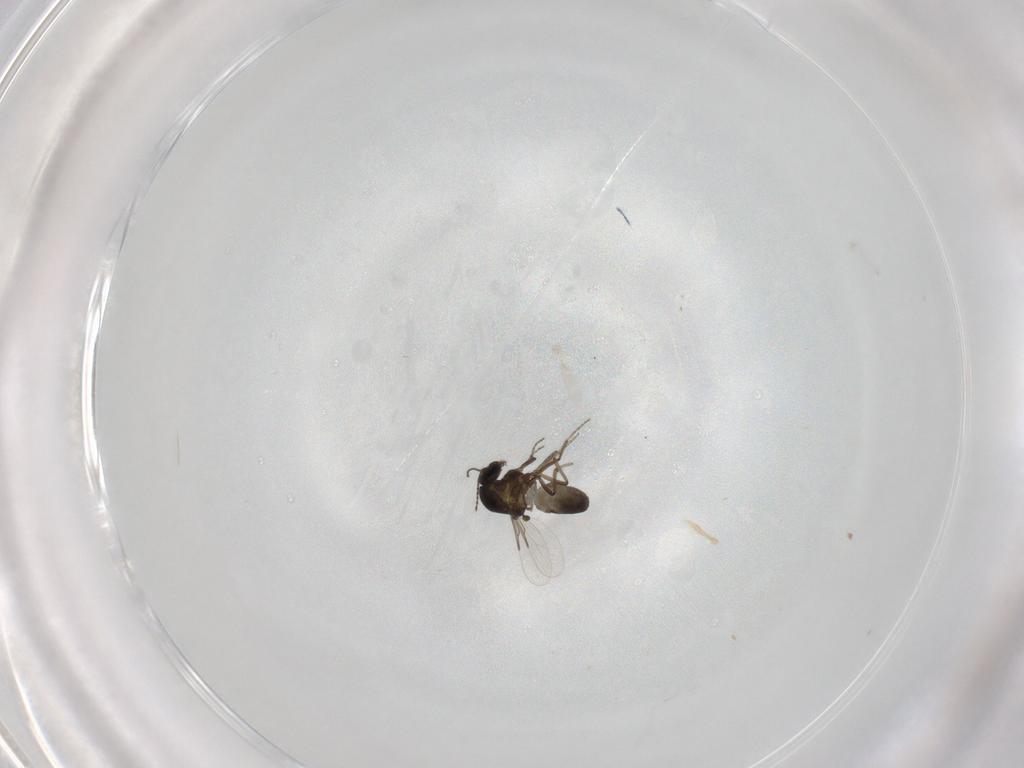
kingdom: Animalia
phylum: Arthropoda
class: Insecta
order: Diptera
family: Ceratopogonidae
